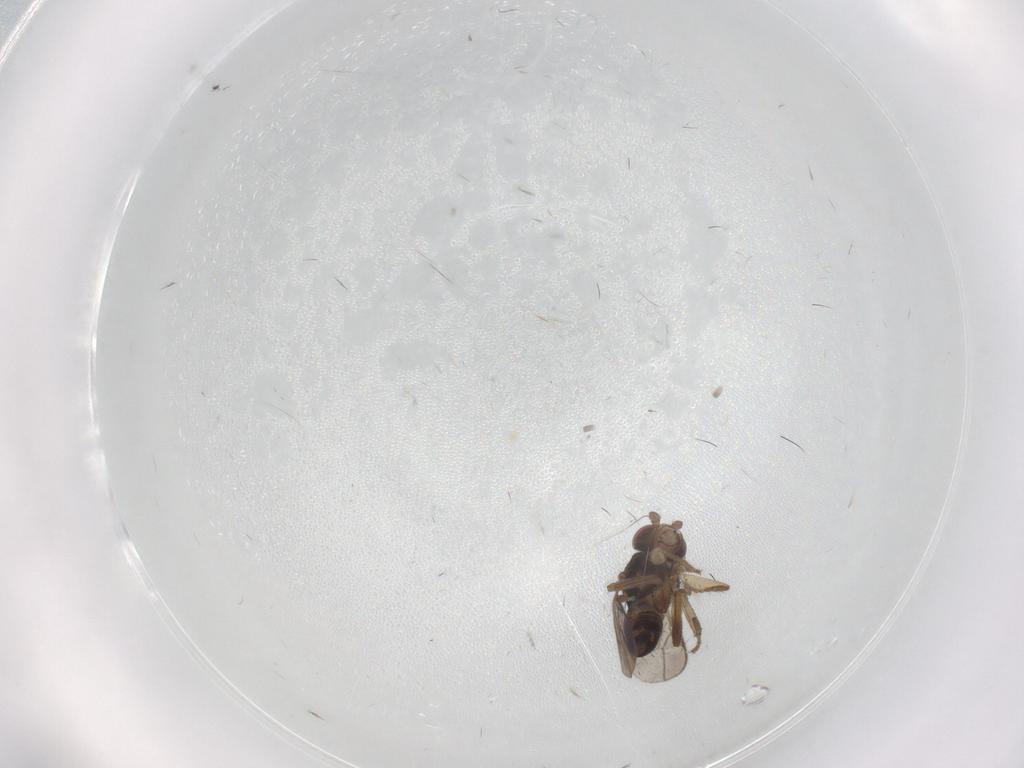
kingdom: Animalia
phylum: Arthropoda
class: Insecta
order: Diptera
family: Sphaeroceridae
